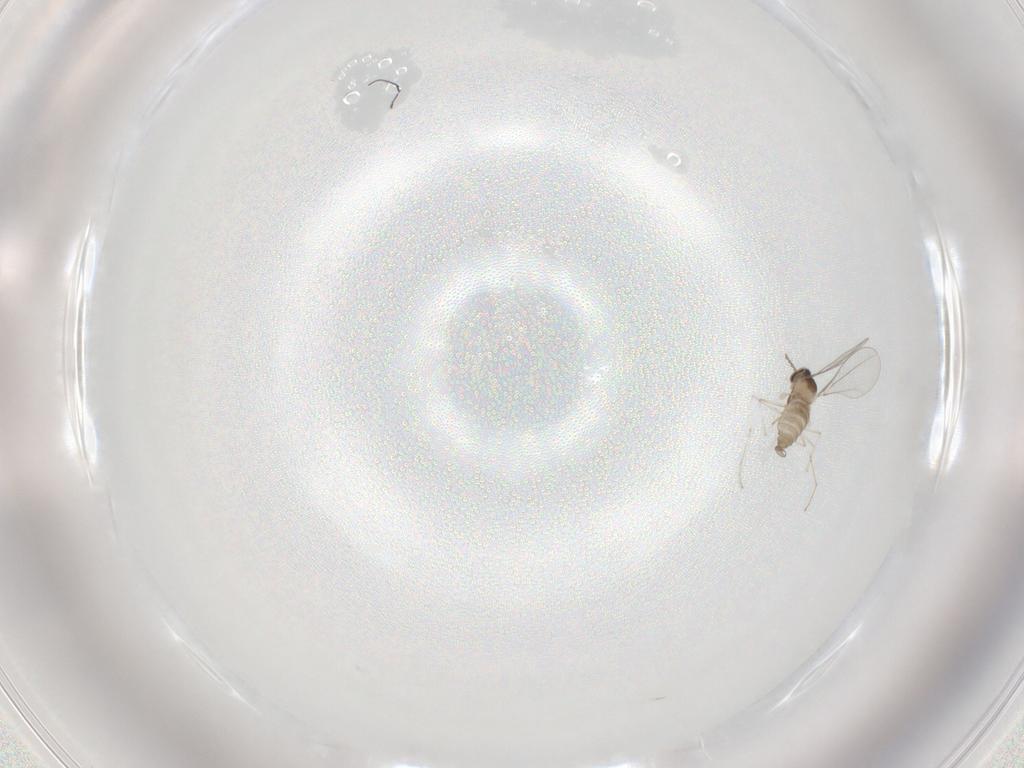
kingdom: Animalia
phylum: Arthropoda
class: Insecta
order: Diptera
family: Cecidomyiidae
